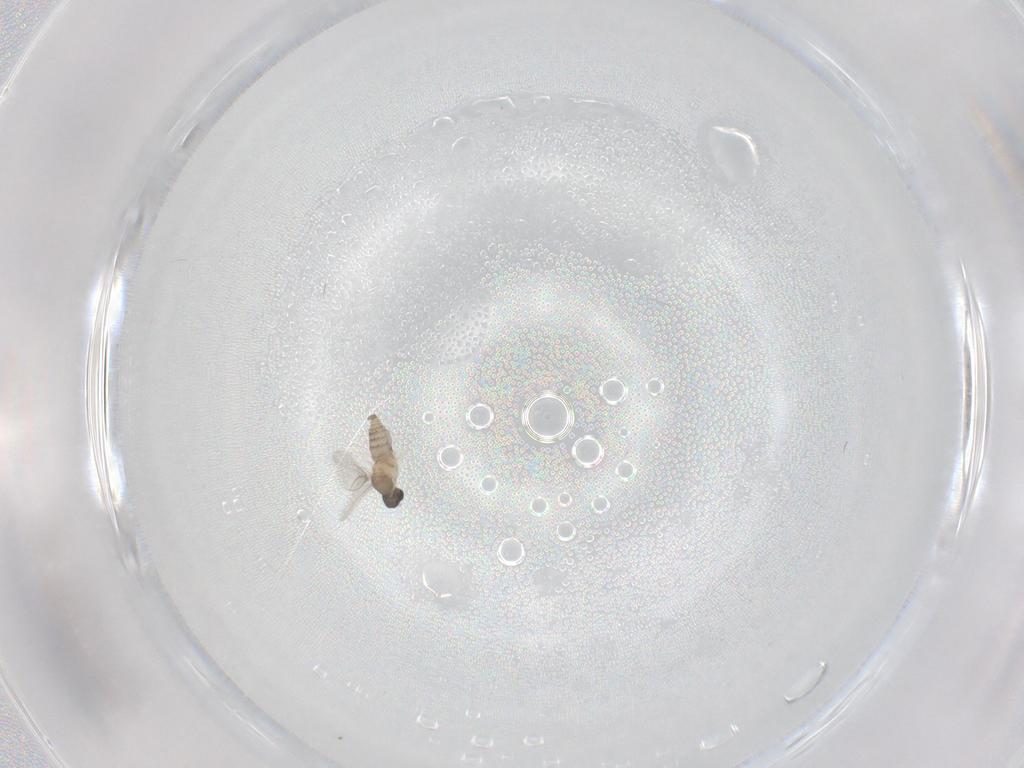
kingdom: Animalia
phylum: Arthropoda
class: Insecta
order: Diptera
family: Cecidomyiidae
